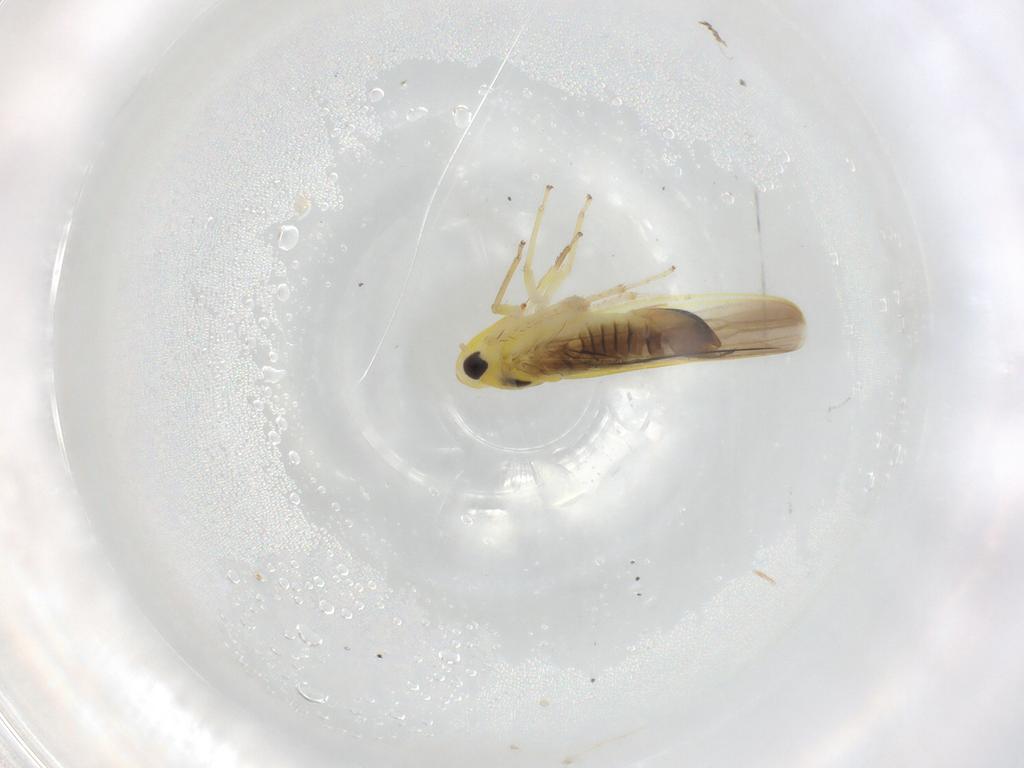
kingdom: Animalia
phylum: Arthropoda
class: Insecta
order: Hemiptera
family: Cicadellidae
